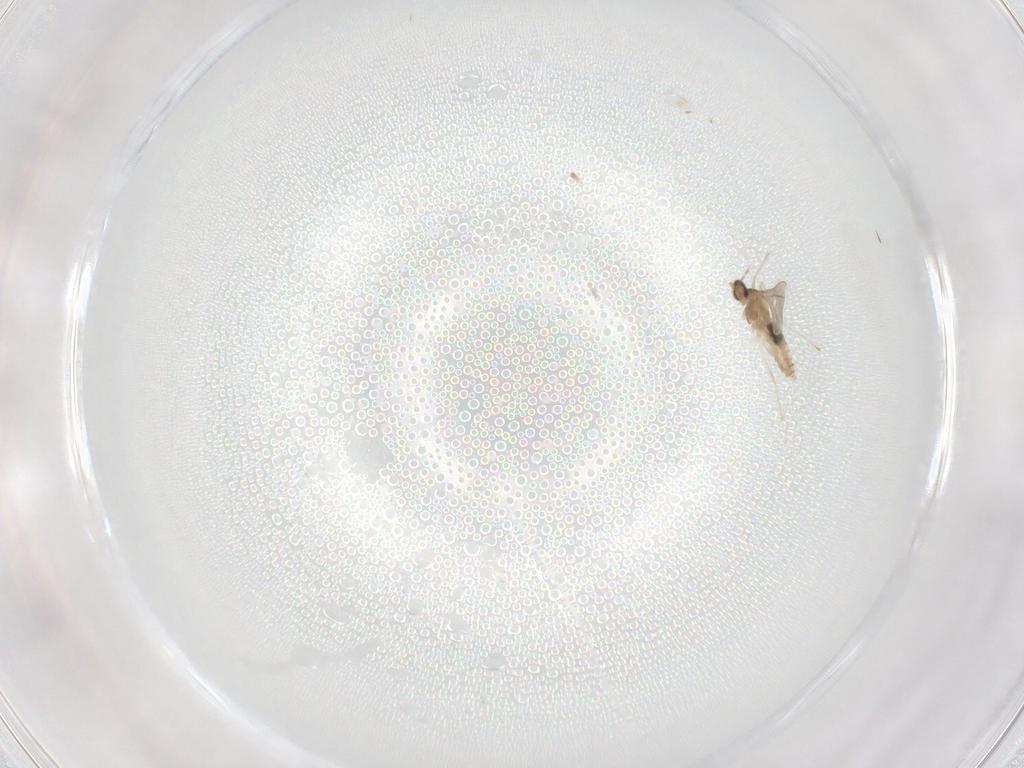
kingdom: Animalia
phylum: Arthropoda
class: Insecta
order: Diptera
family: Cecidomyiidae
